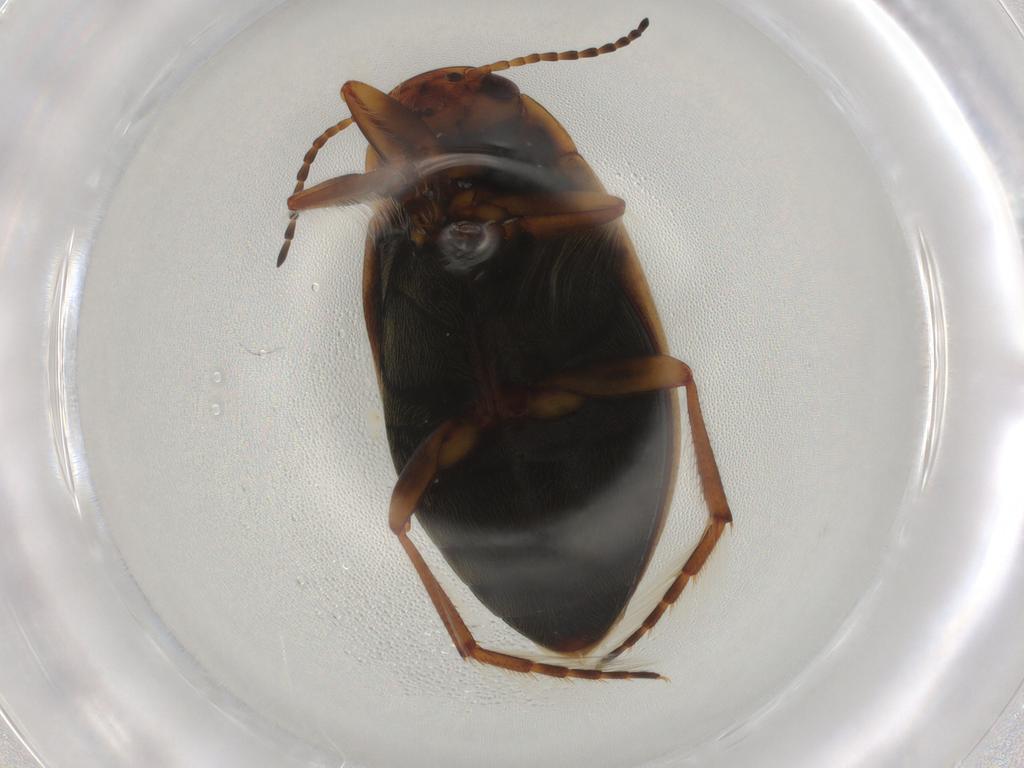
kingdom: Animalia
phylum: Arthropoda
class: Insecta
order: Coleoptera
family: Dytiscidae
